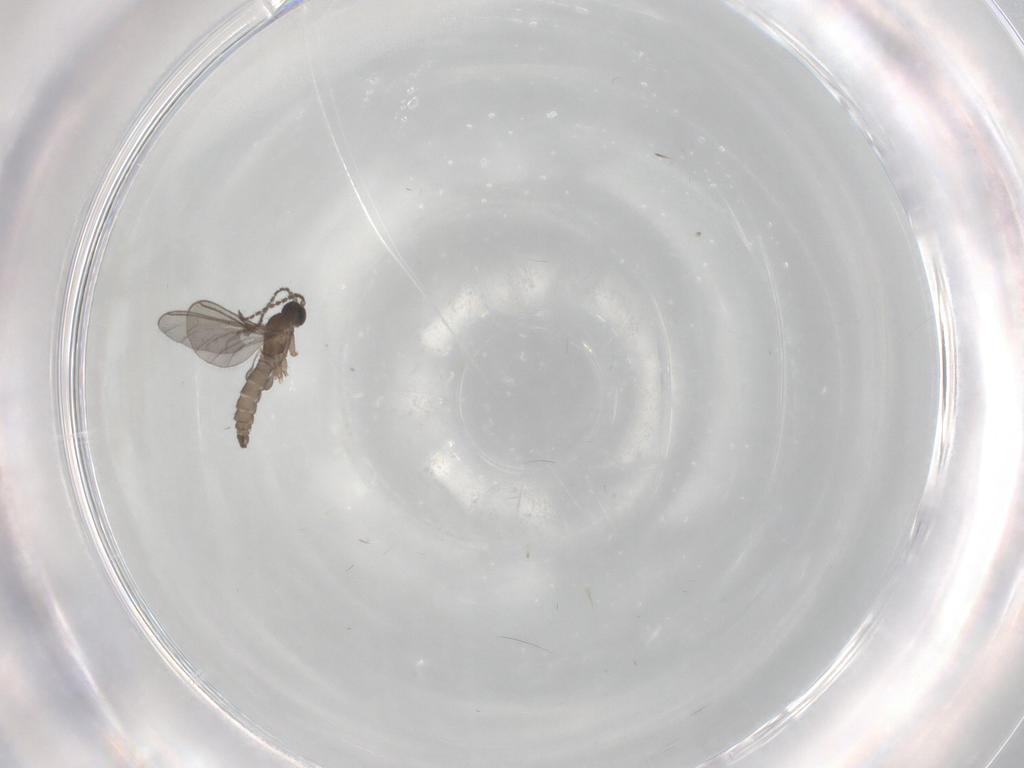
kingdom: Animalia
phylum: Arthropoda
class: Insecta
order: Diptera
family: Sciaridae
